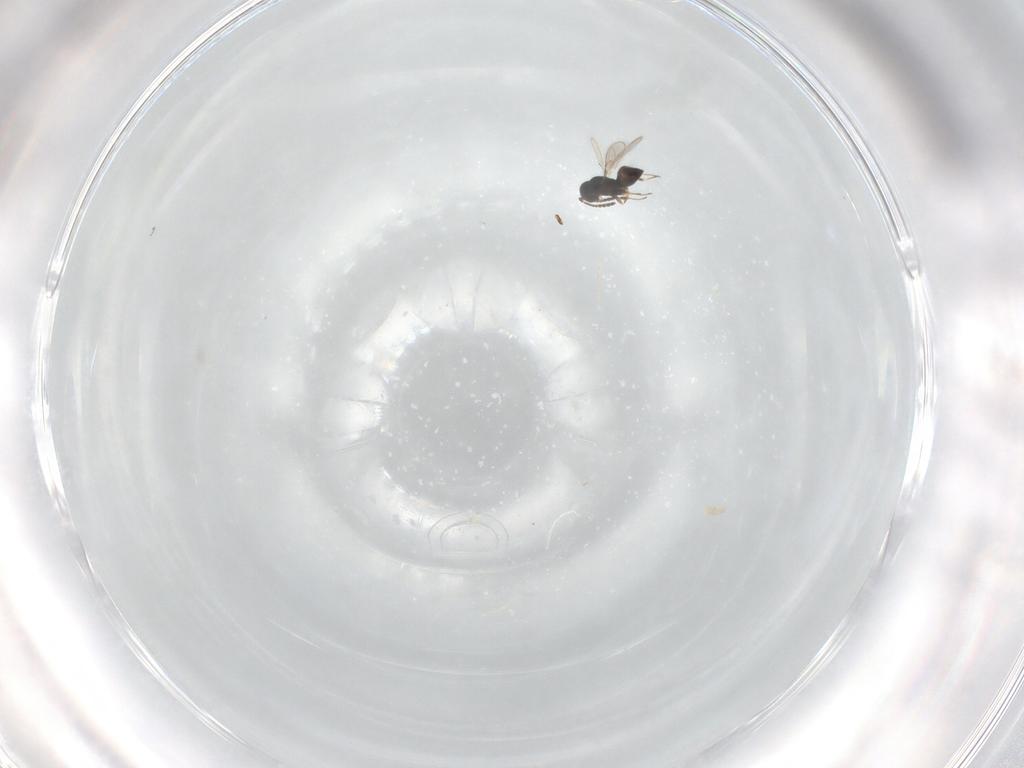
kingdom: Animalia
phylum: Arthropoda
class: Insecta
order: Hymenoptera
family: Scelionidae
